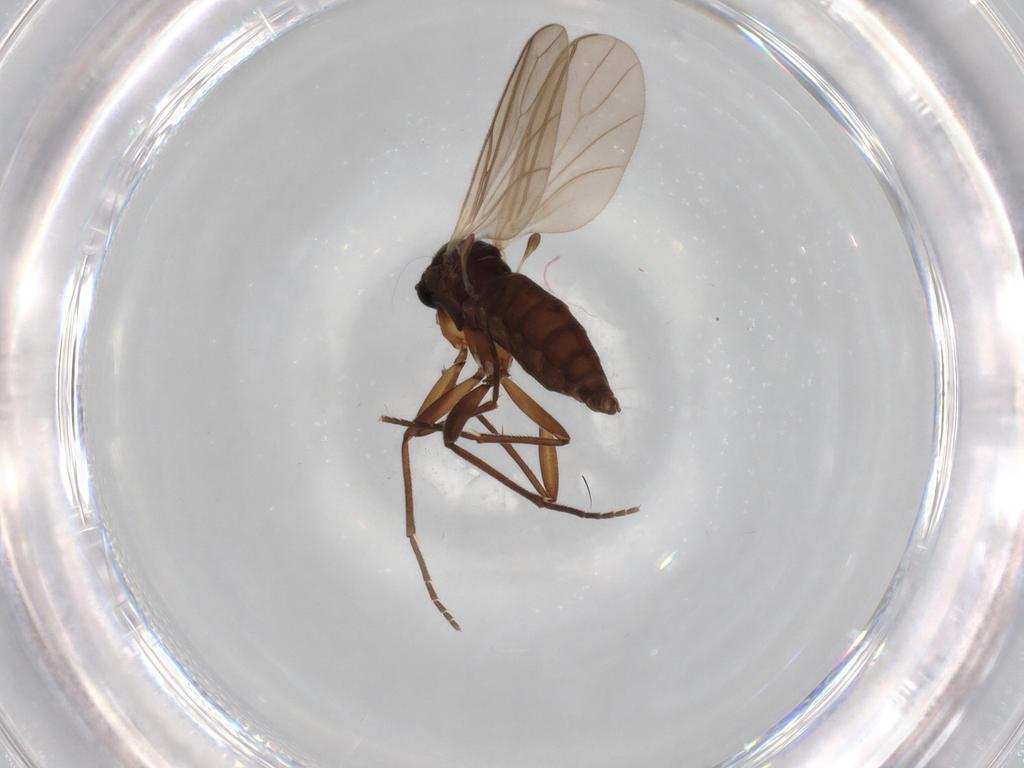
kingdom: Animalia
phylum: Arthropoda
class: Insecta
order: Diptera
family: Sciaridae
